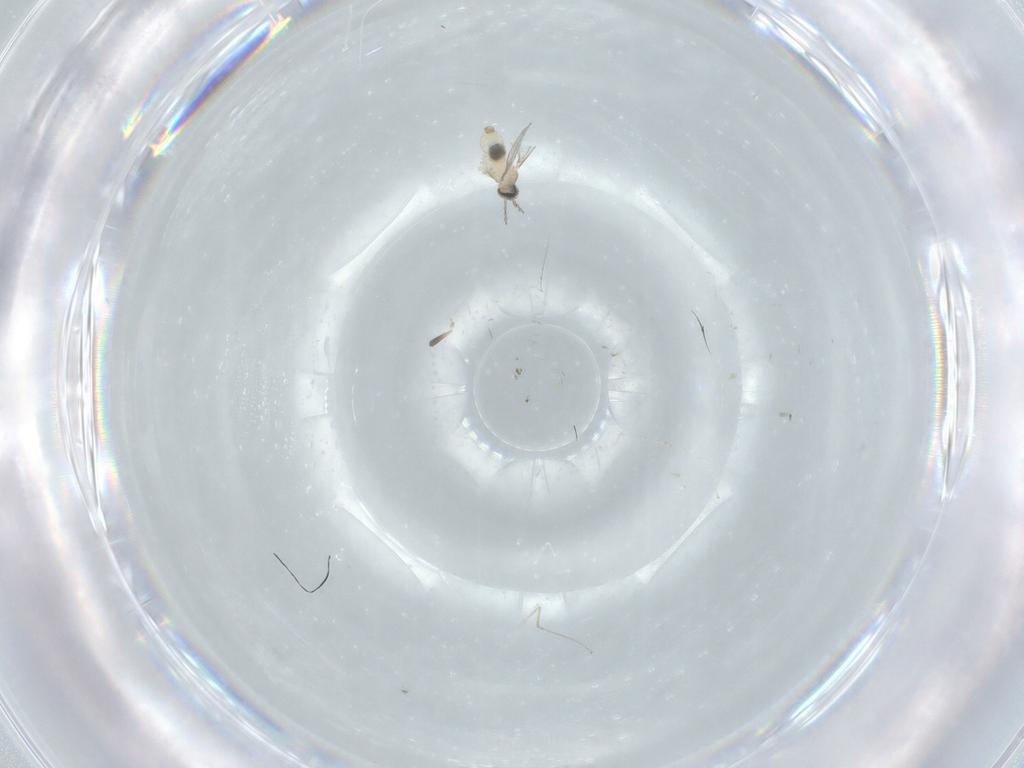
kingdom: Animalia
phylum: Arthropoda
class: Insecta
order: Diptera
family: Cecidomyiidae
